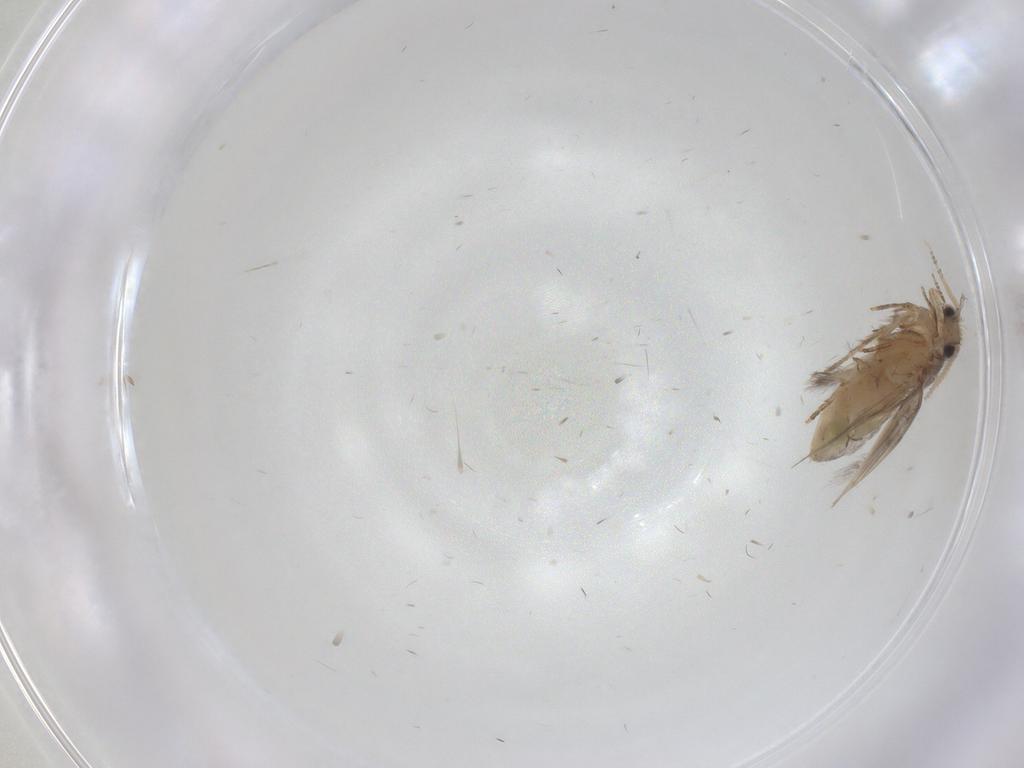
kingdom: Animalia
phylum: Arthropoda
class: Insecta
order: Trichoptera
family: Hydroptilidae
